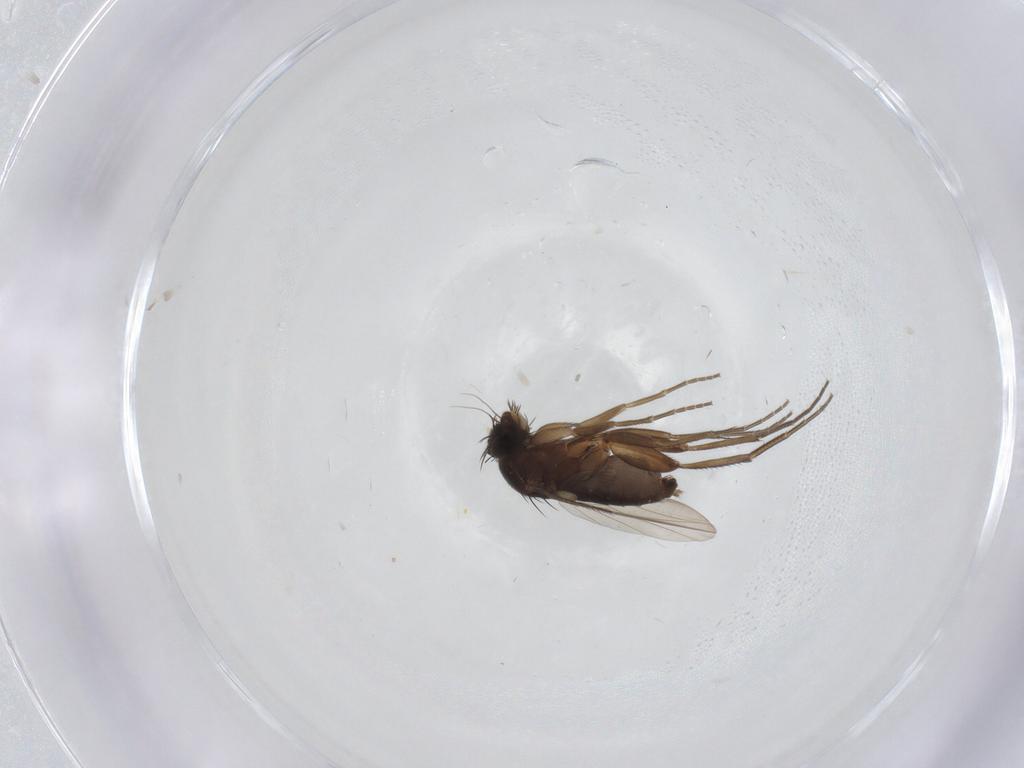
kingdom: Animalia
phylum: Arthropoda
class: Insecta
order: Diptera
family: Phoridae
